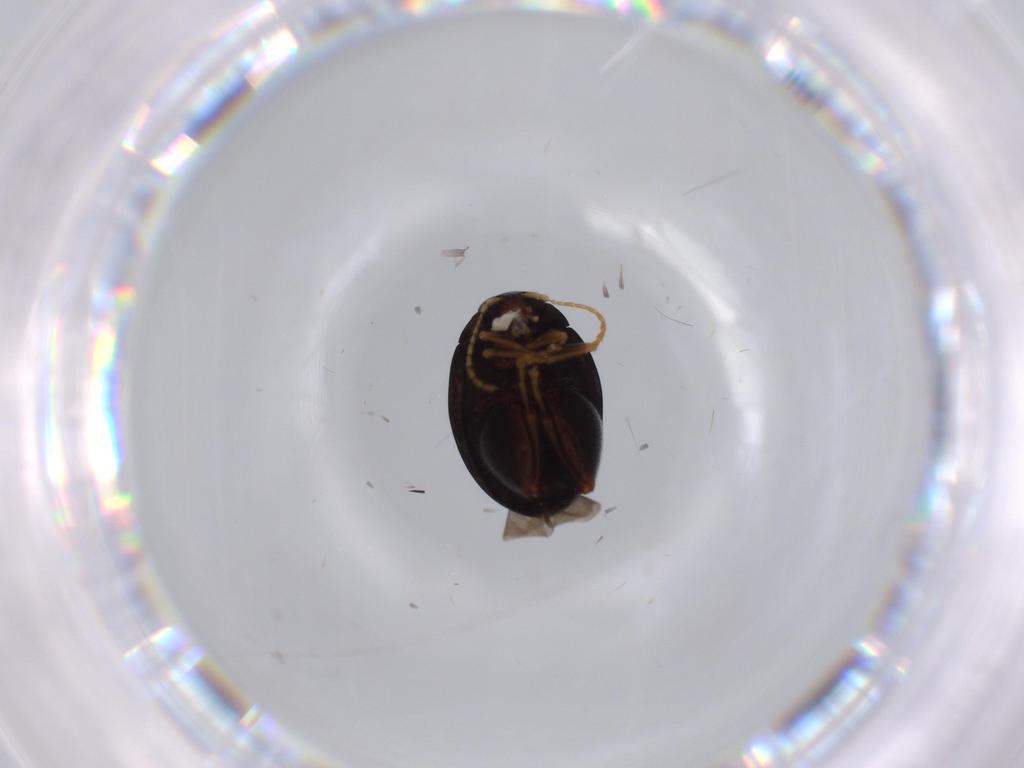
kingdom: Animalia
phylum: Arthropoda
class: Insecta
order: Coleoptera
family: Chrysomelidae
